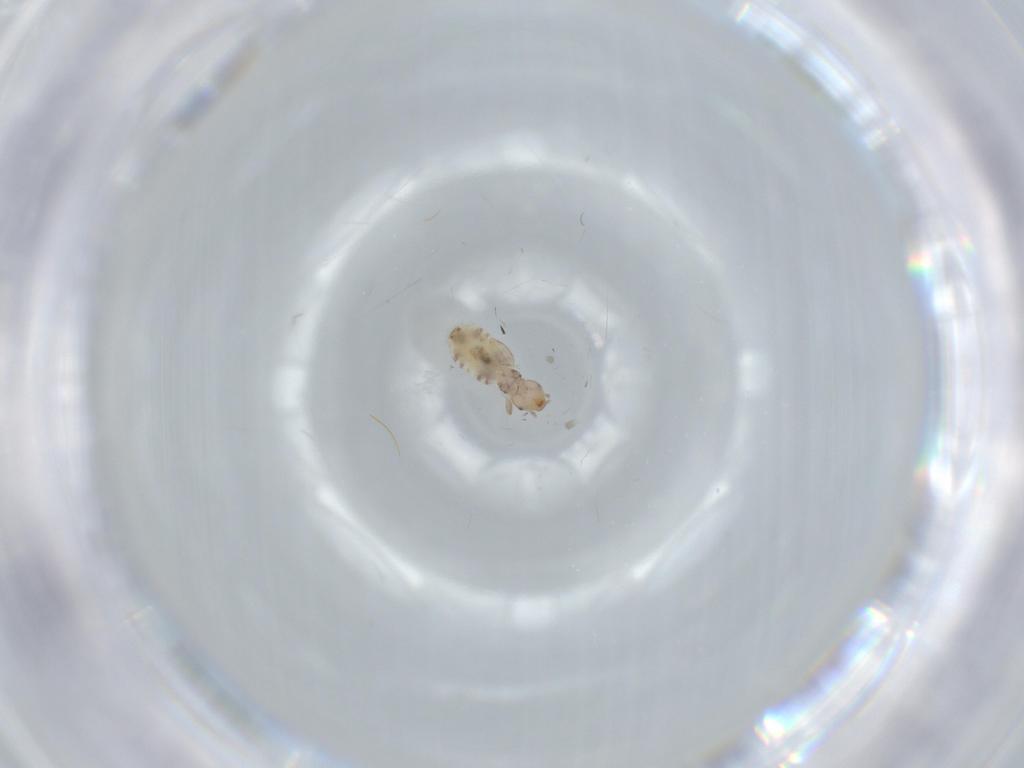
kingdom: Animalia
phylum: Arthropoda
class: Insecta
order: Psocodea
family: Liposcelididae
